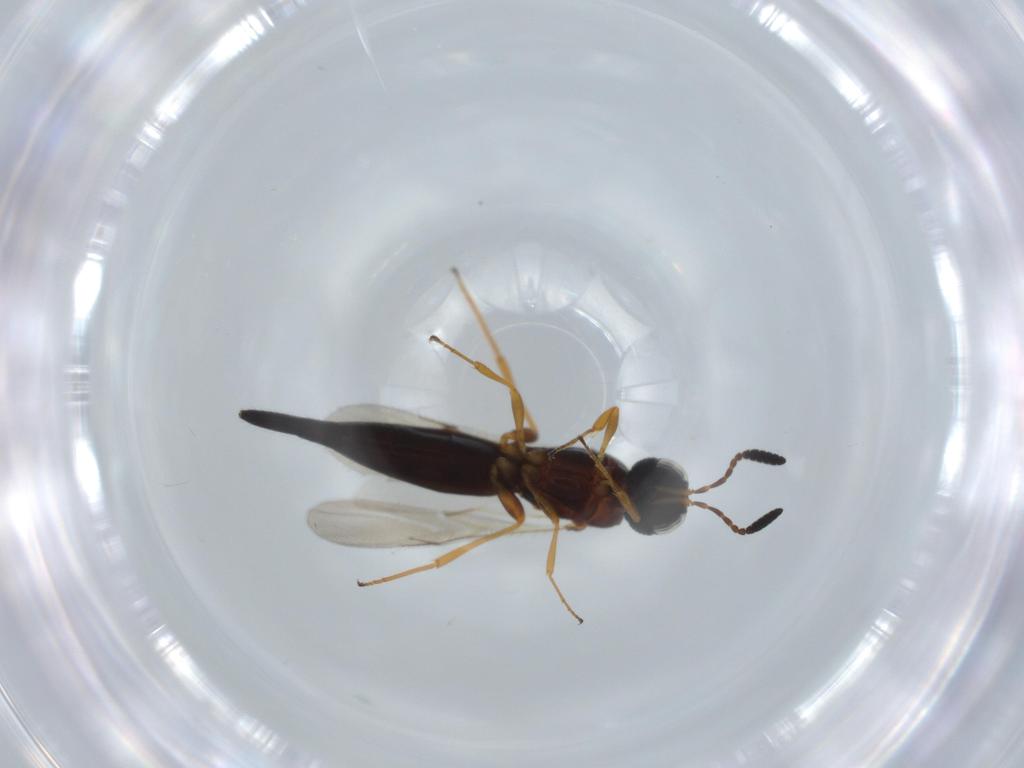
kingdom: Animalia
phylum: Arthropoda
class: Insecta
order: Hymenoptera
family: Scelionidae
